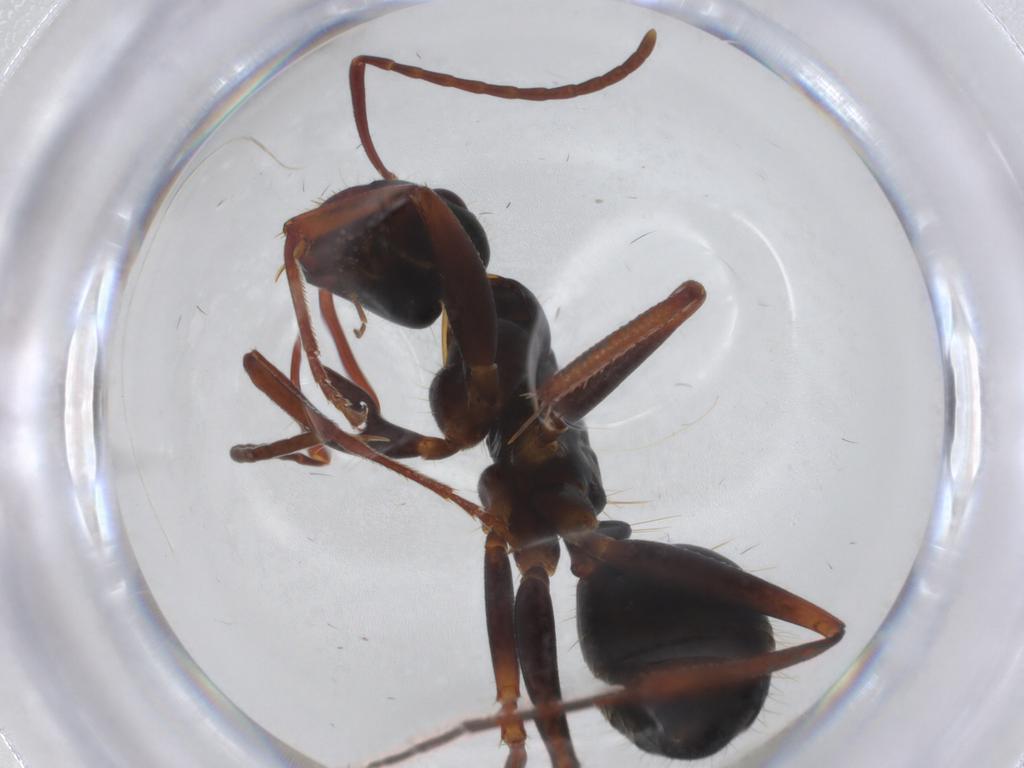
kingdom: Animalia
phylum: Arthropoda
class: Insecta
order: Hymenoptera
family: Formicidae
